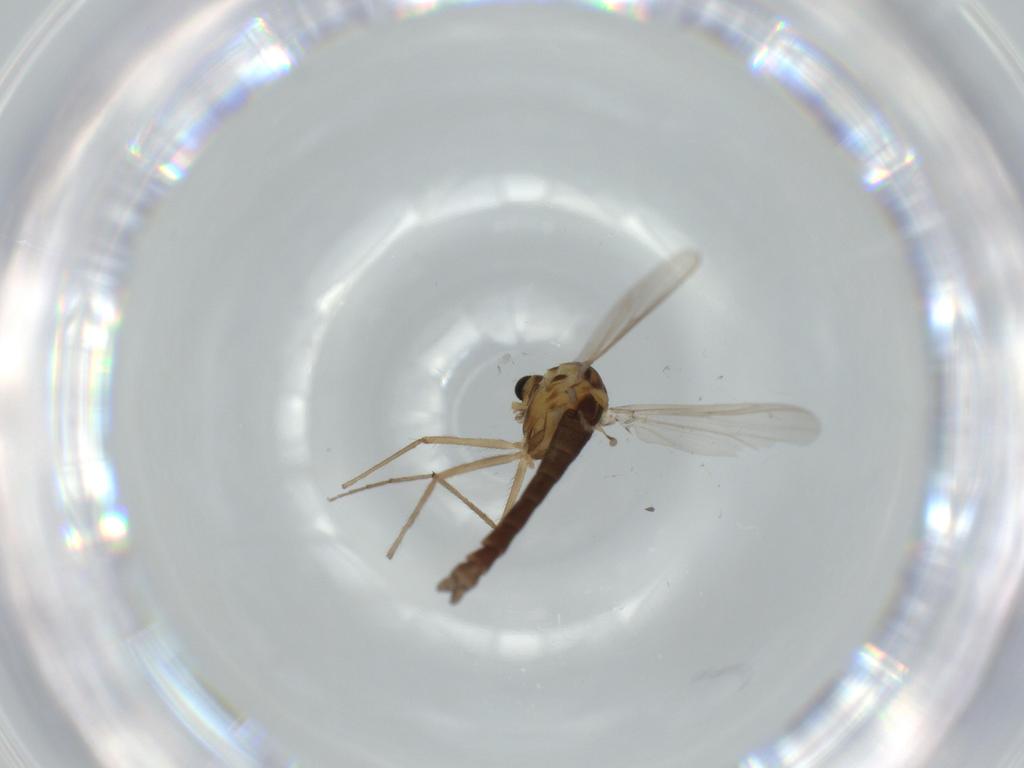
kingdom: Animalia
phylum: Arthropoda
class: Insecta
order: Diptera
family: Chironomidae
